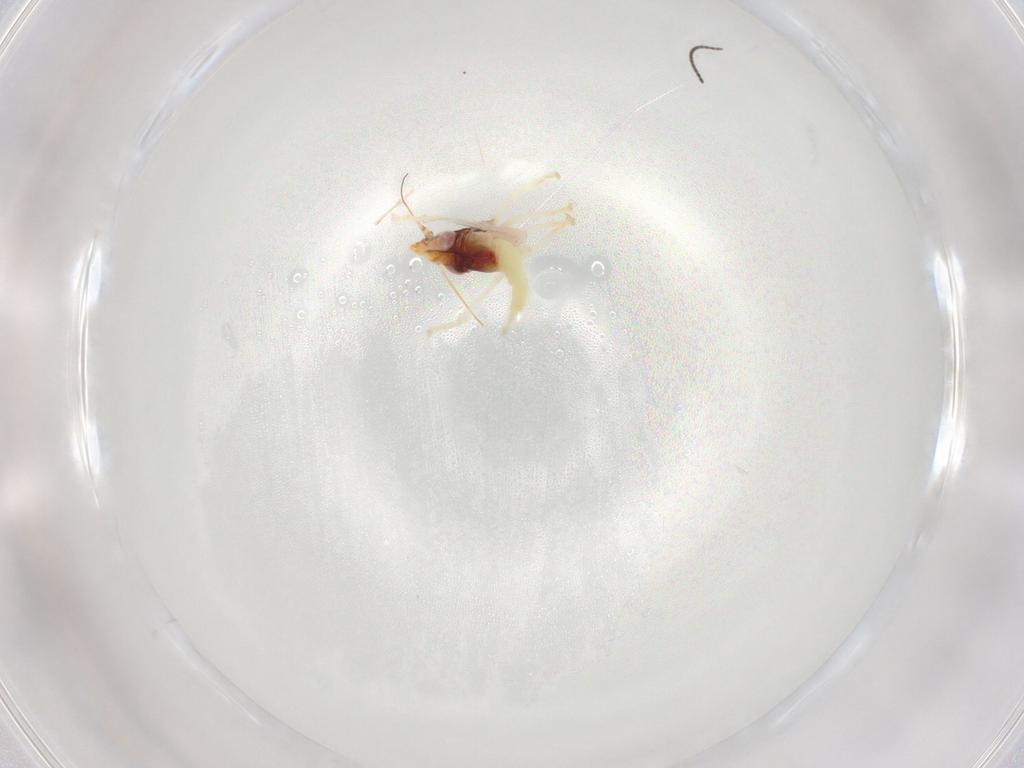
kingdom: Animalia
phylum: Arthropoda
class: Insecta
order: Hemiptera
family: Cicadellidae
